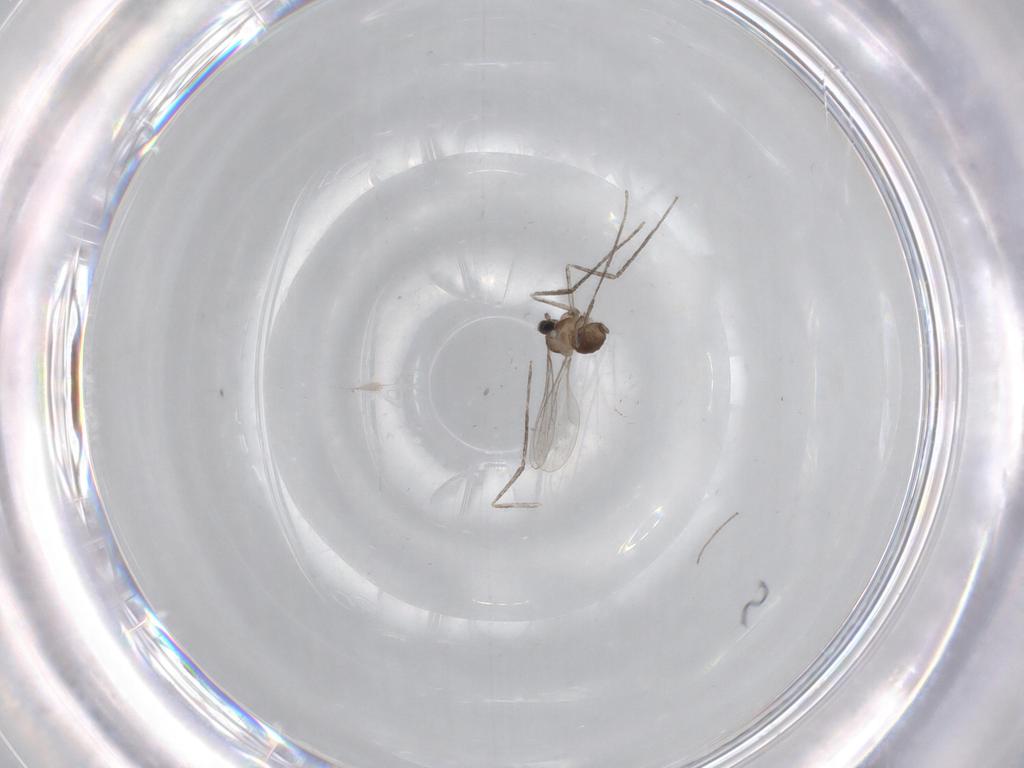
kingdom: Animalia
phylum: Arthropoda
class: Insecta
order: Diptera
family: Cecidomyiidae
